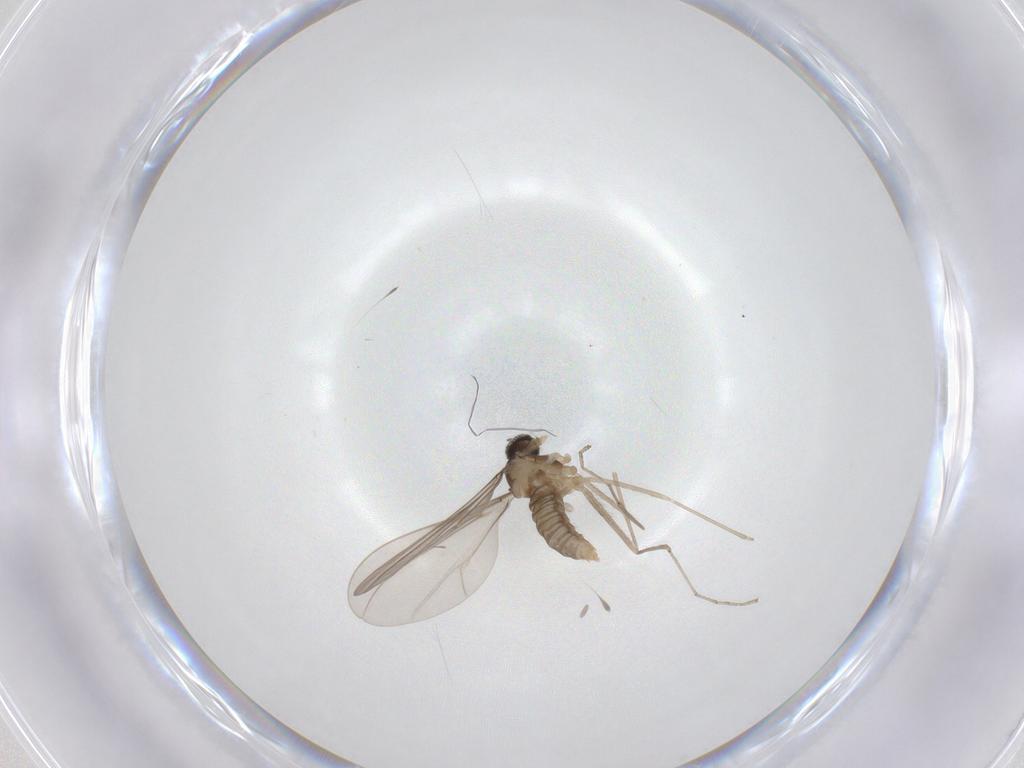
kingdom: Animalia
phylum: Arthropoda
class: Insecta
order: Diptera
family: Cecidomyiidae
